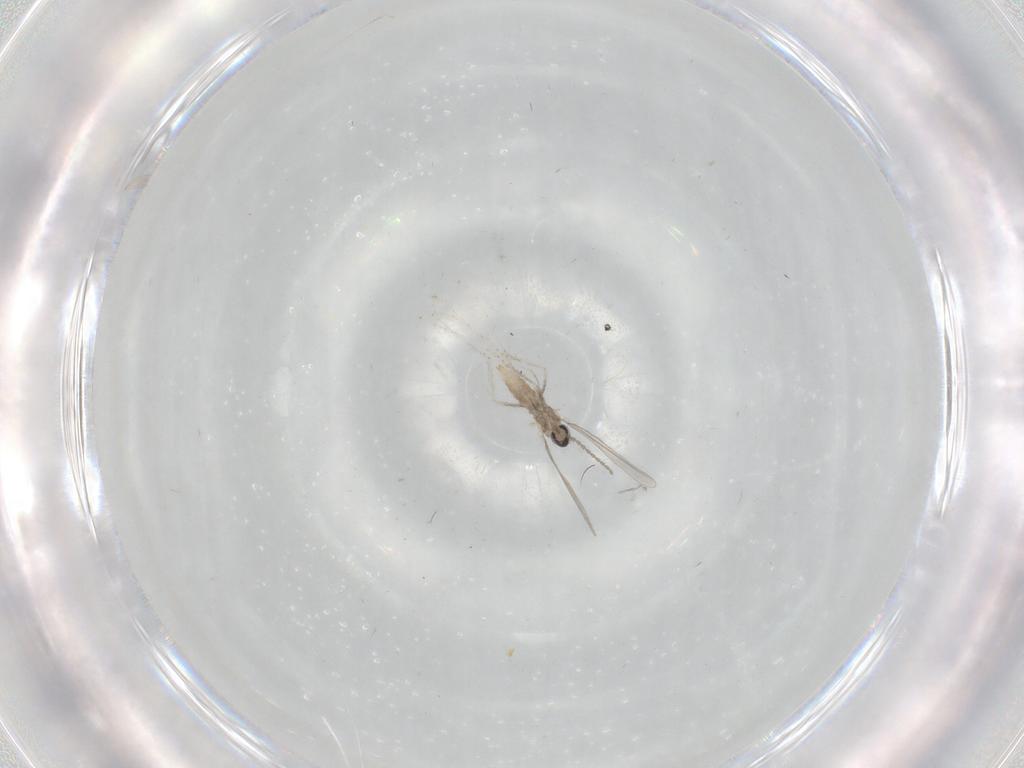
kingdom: Animalia
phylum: Arthropoda
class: Insecta
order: Diptera
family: Cecidomyiidae
